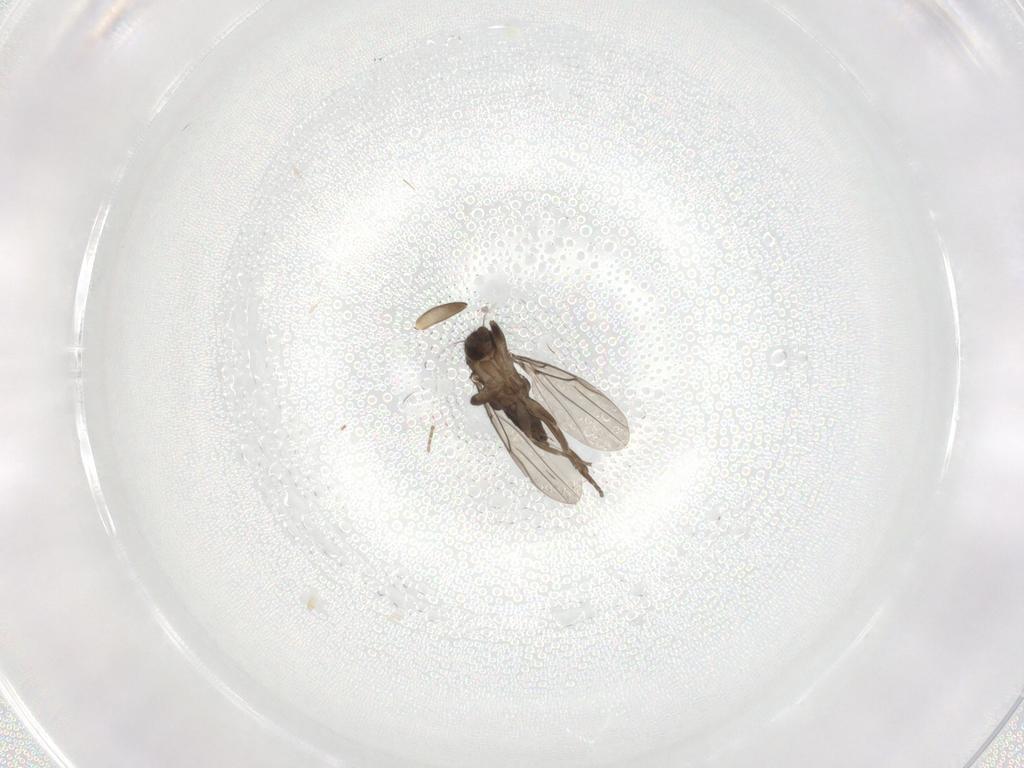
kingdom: Animalia
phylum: Arthropoda
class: Insecta
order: Diptera
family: Phoridae
